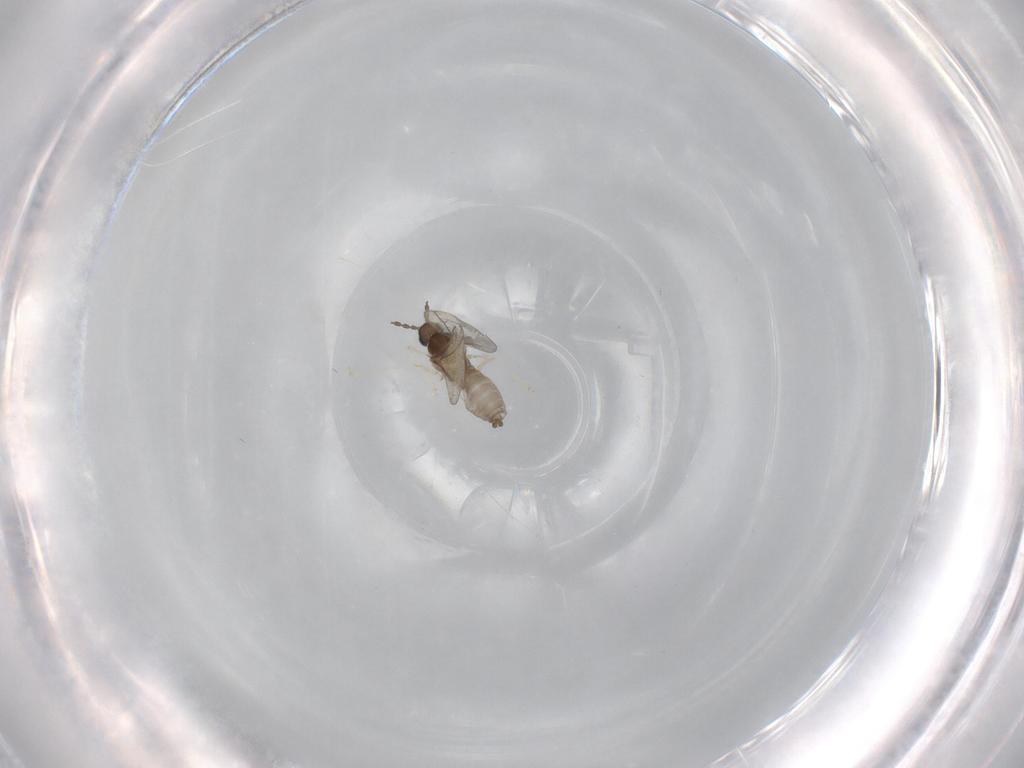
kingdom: Animalia
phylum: Arthropoda
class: Insecta
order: Diptera
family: Cecidomyiidae
